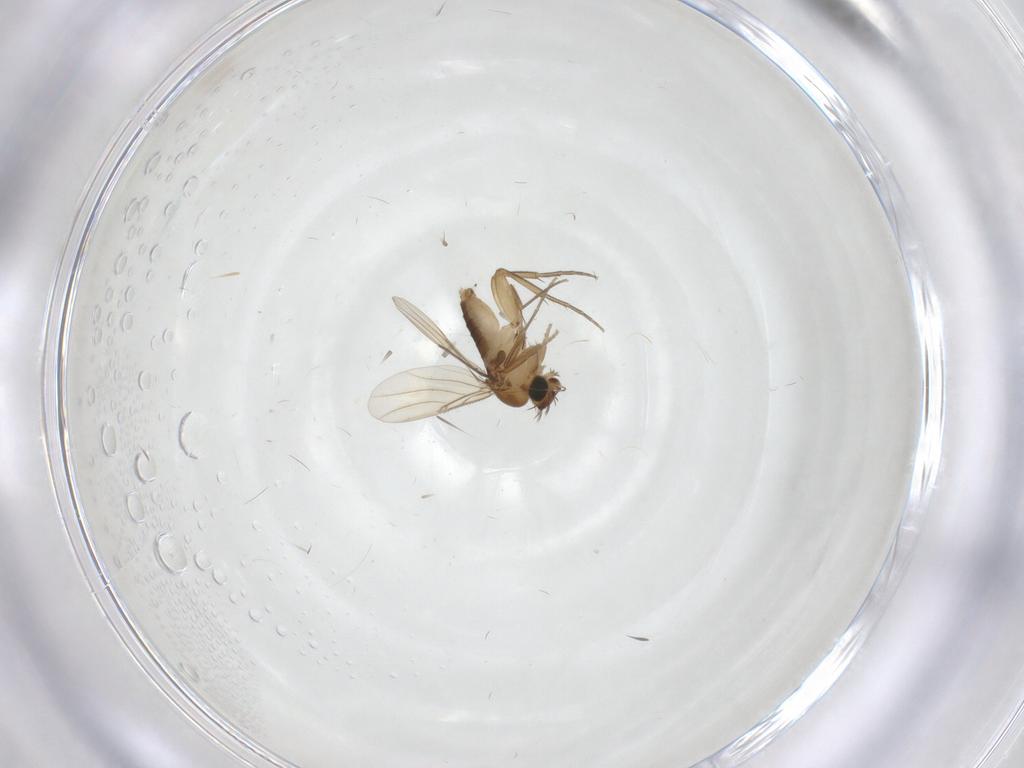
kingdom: Animalia
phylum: Arthropoda
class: Insecta
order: Diptera
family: Phoridae
